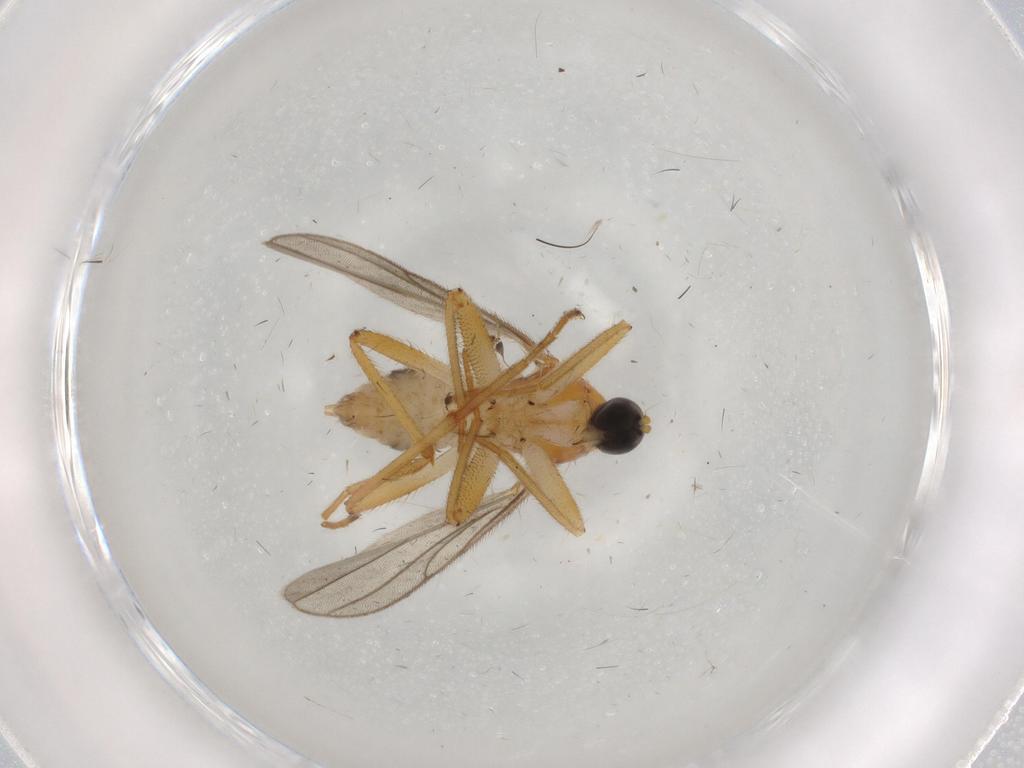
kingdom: Animalia
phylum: Arthropoda
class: Insecta
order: Diptera
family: Hybotidae
